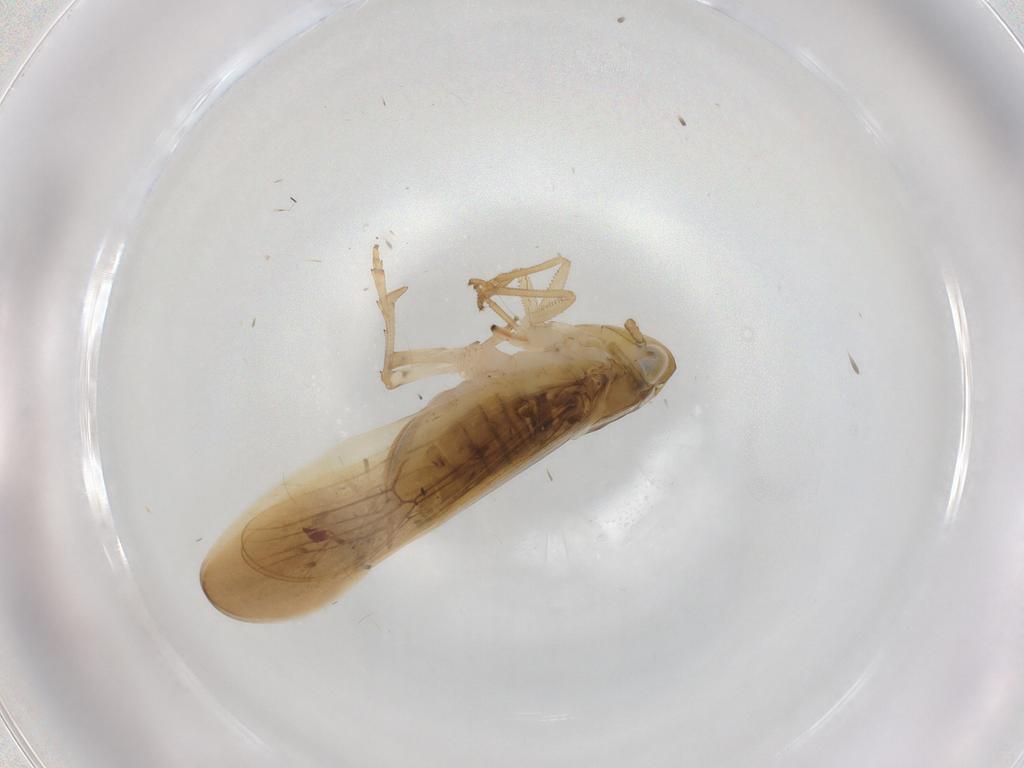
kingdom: Animalia
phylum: Arthropoda
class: Insecta
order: Hemiptera
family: Delphacidae
